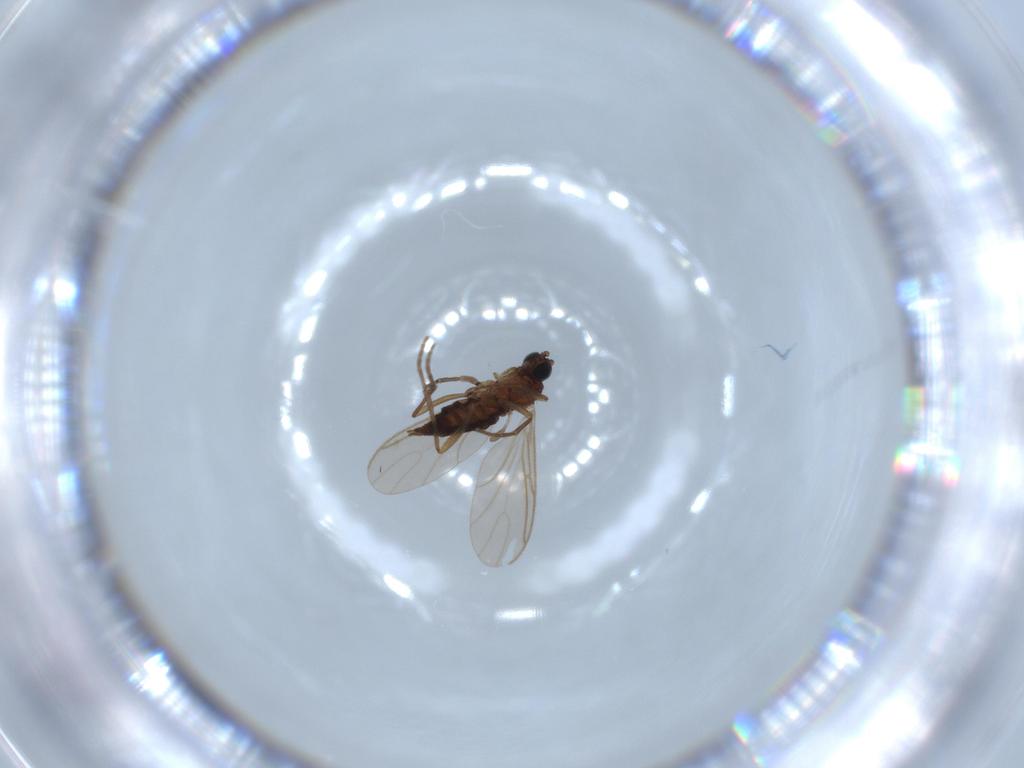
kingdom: Animalia
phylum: Arthropoda
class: Insecta
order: Diptera
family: Sciaridae
